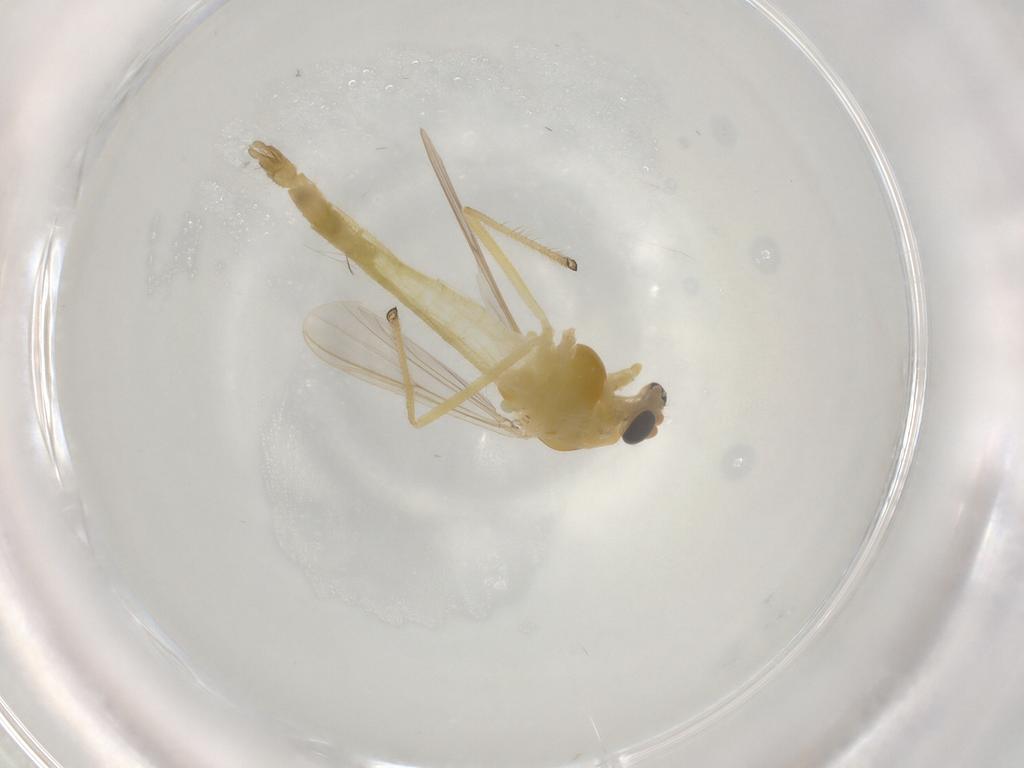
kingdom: Animalia
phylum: Arthropoda
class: Insecta
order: Diptera
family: Chironomidae
